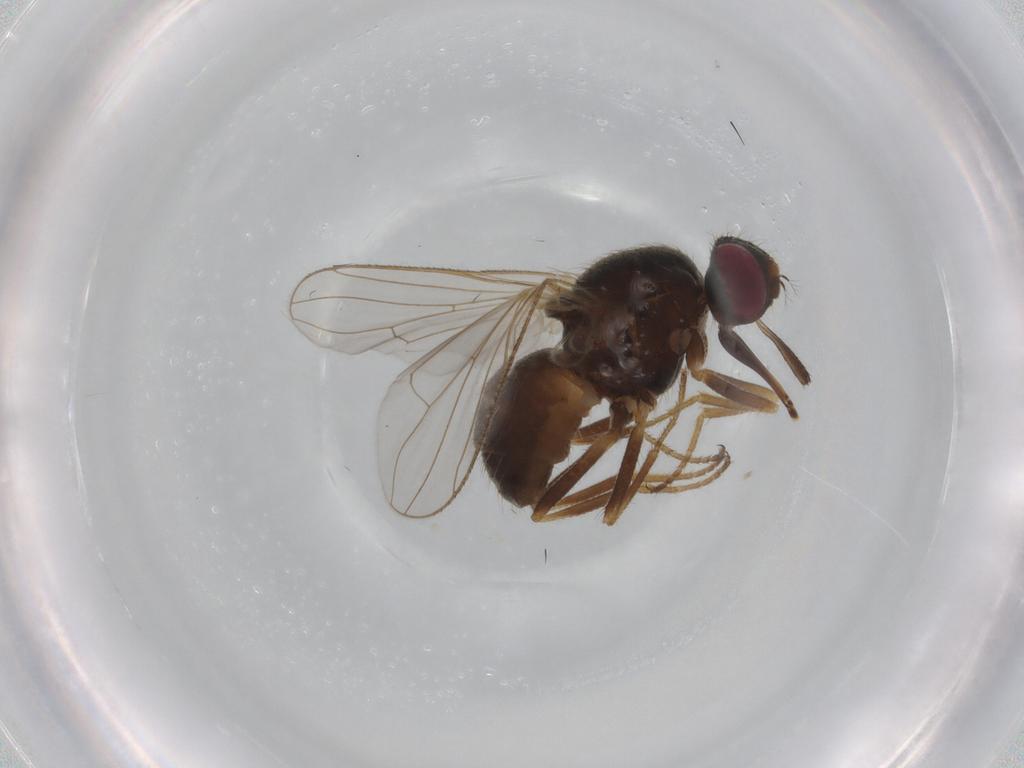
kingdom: Animalia
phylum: Arthropoda
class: Insecta
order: Diptera
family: Muscidae
